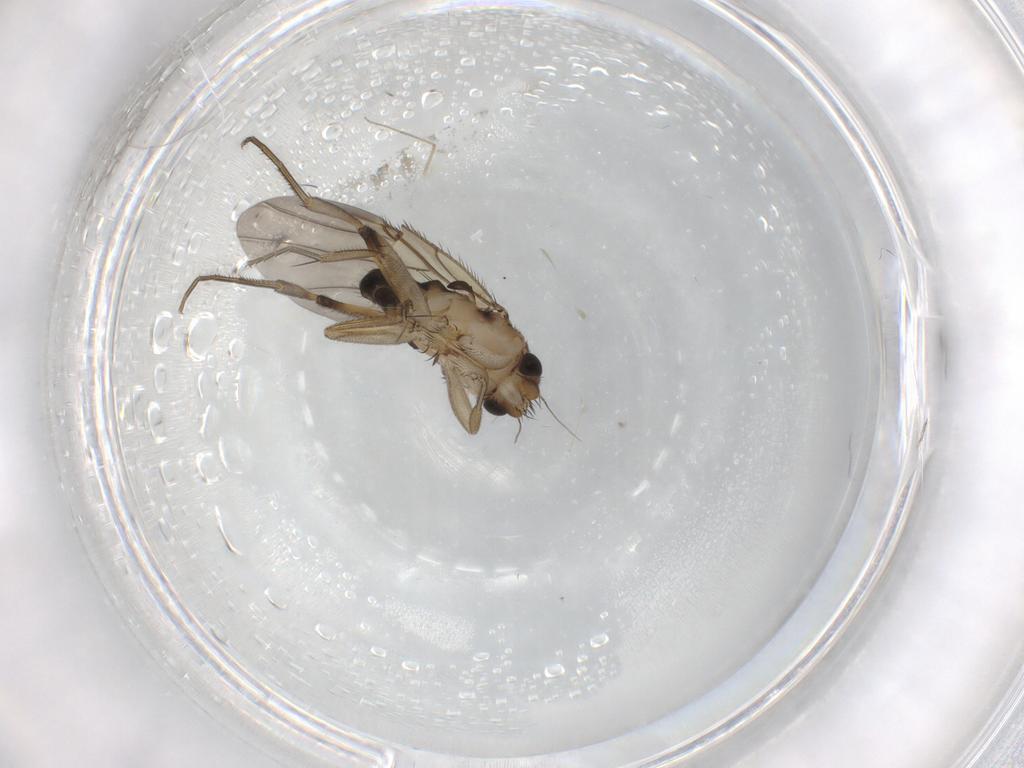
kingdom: Animalia
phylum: Arthropoda
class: Insecta
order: Diptera
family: Phoridae
